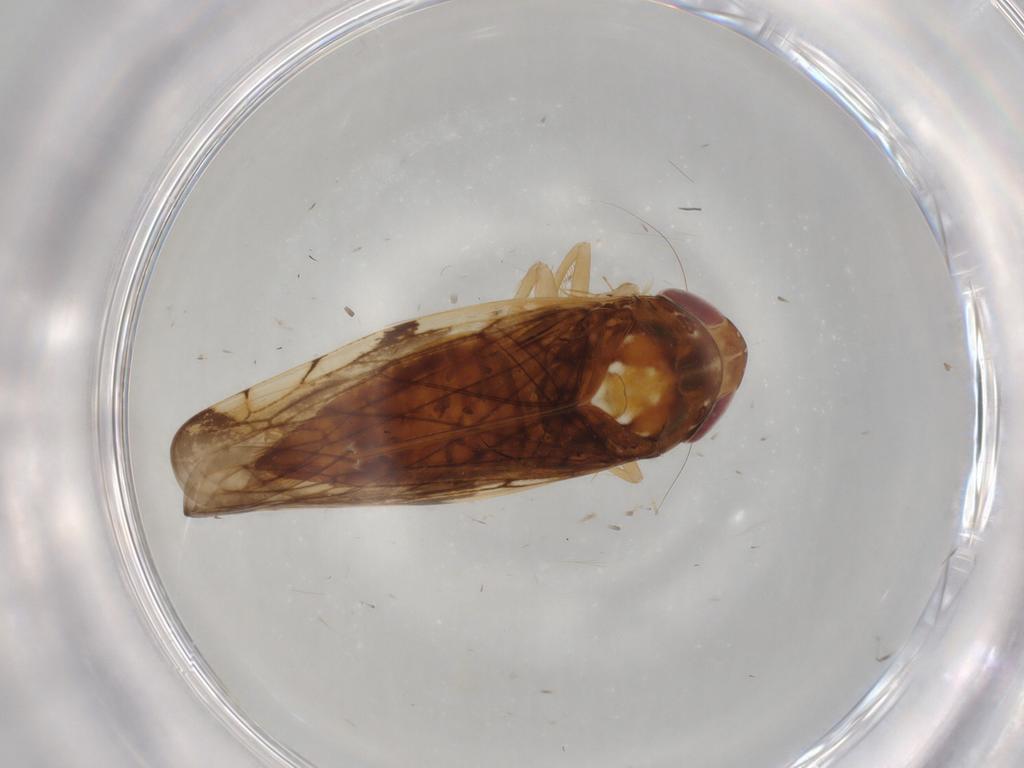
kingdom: Animalia
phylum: Arthropoda
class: Insecta
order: Hemiptera
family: Cicadellidae
